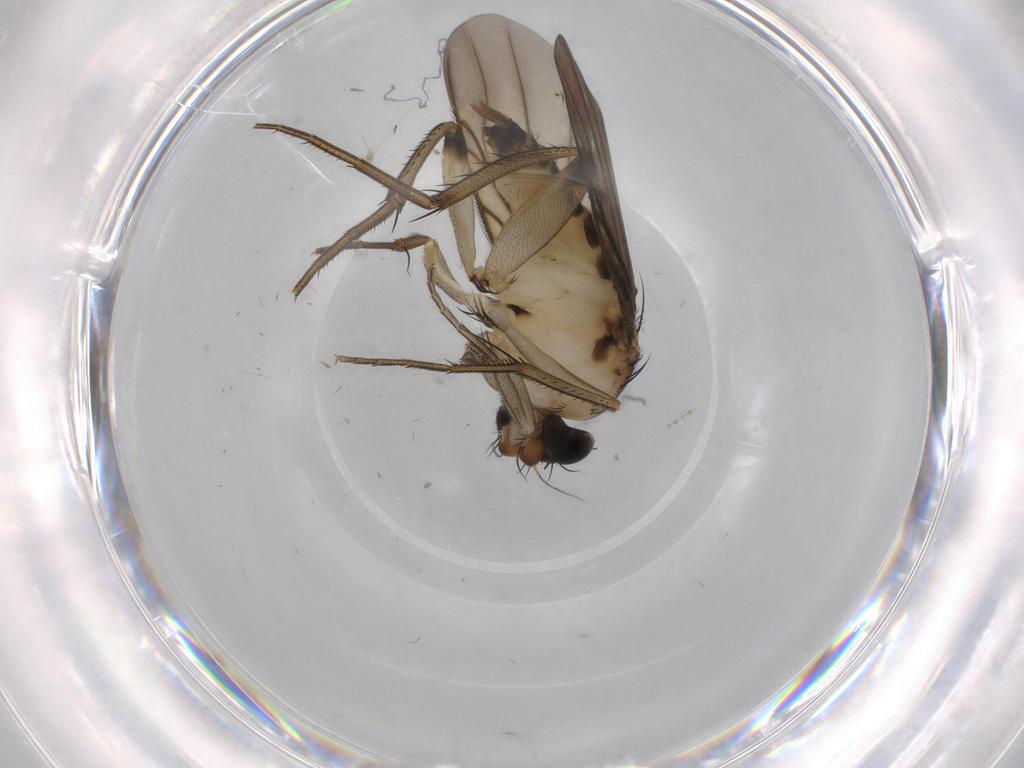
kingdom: Animalia
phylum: Arthropoda
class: Insecta
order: Diptera
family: Phoridae
